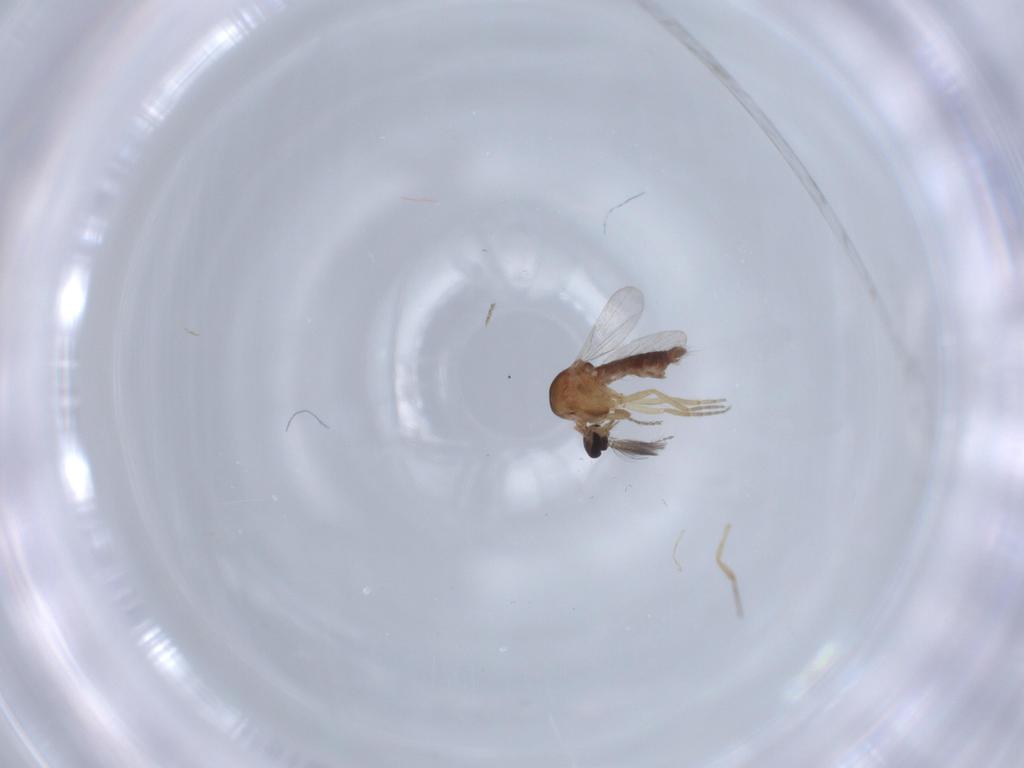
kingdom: Animalia
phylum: Arthropoda
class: Insecta
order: Diptera
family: Ceratopogonidae
